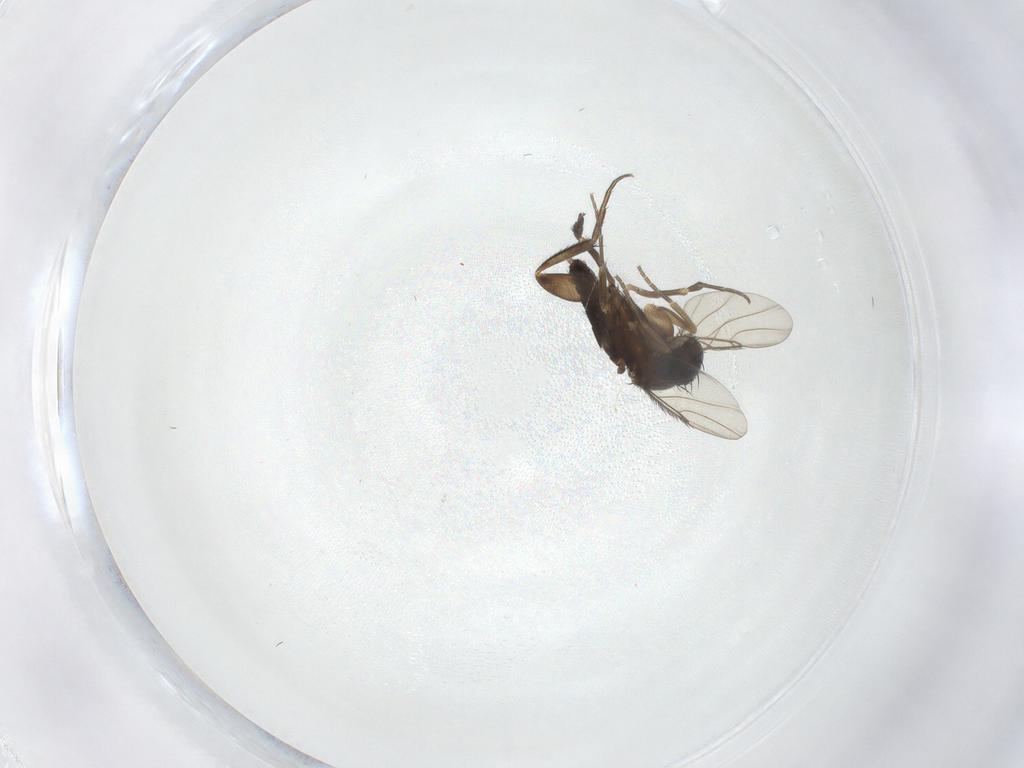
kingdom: Animalia
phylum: Arthropoda
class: Insecta
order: Diptera
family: Phoridae
